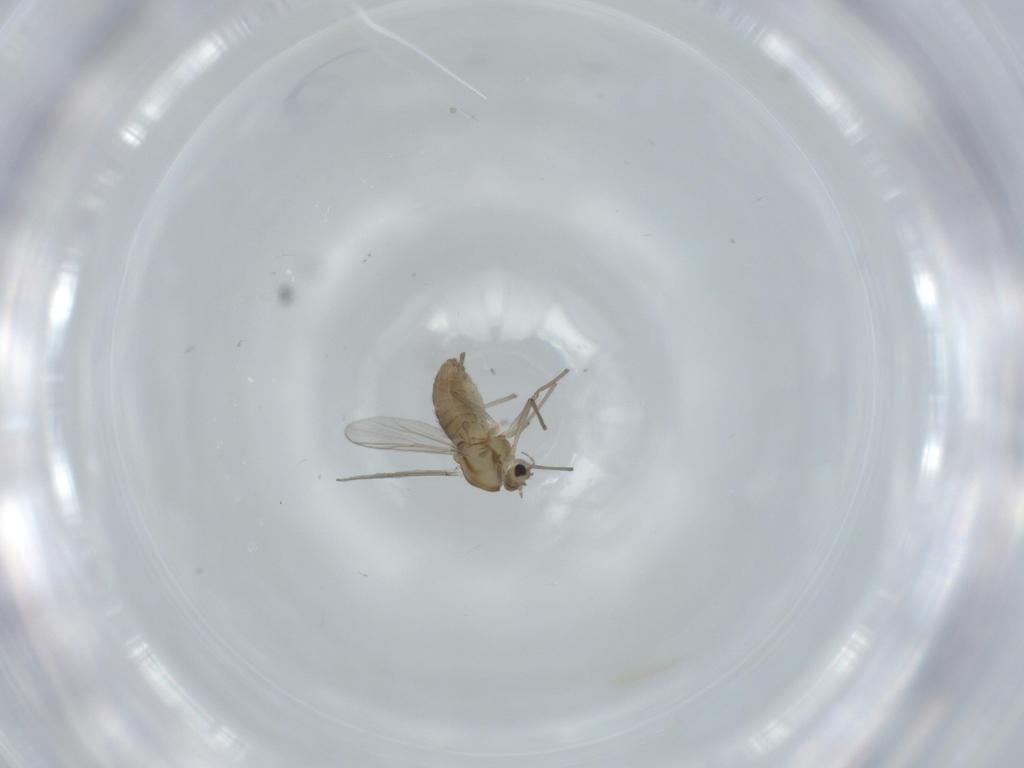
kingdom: Animalia
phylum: Arthropoda
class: Insecta
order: Diptera
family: Chironomidae
